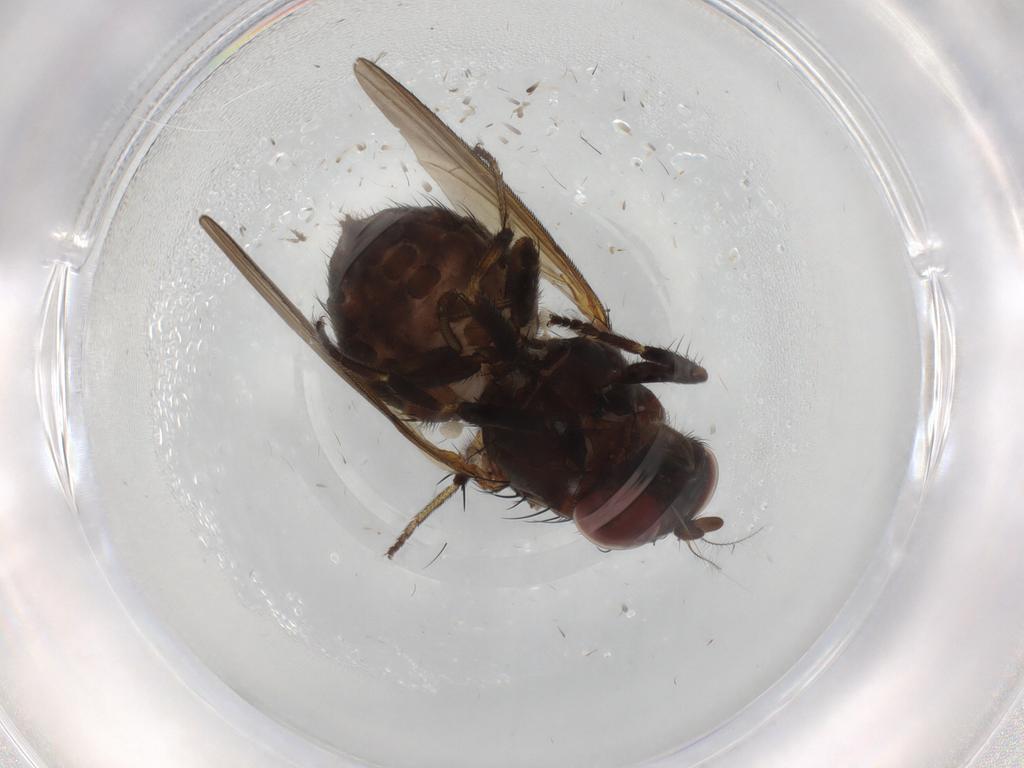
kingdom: Animalia
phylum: Arthropoda
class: Insecta
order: Diptera
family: Lauxaniidae
